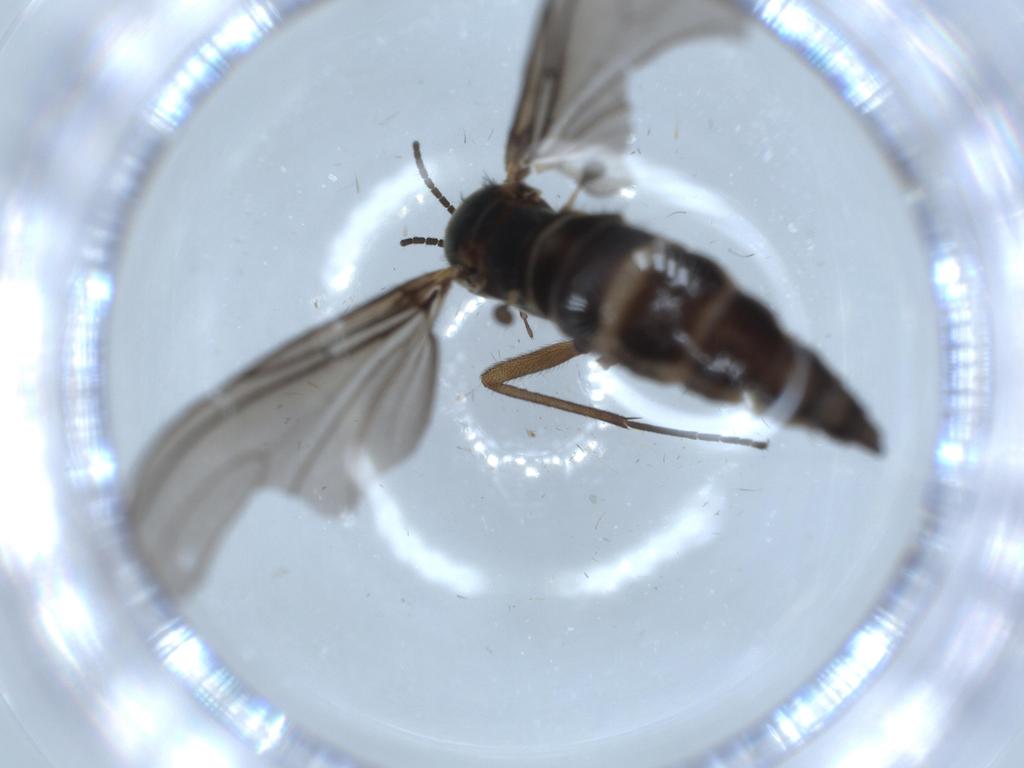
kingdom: Animalia
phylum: Arthropoda
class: Insecta
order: Diptera
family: Sciaridae
